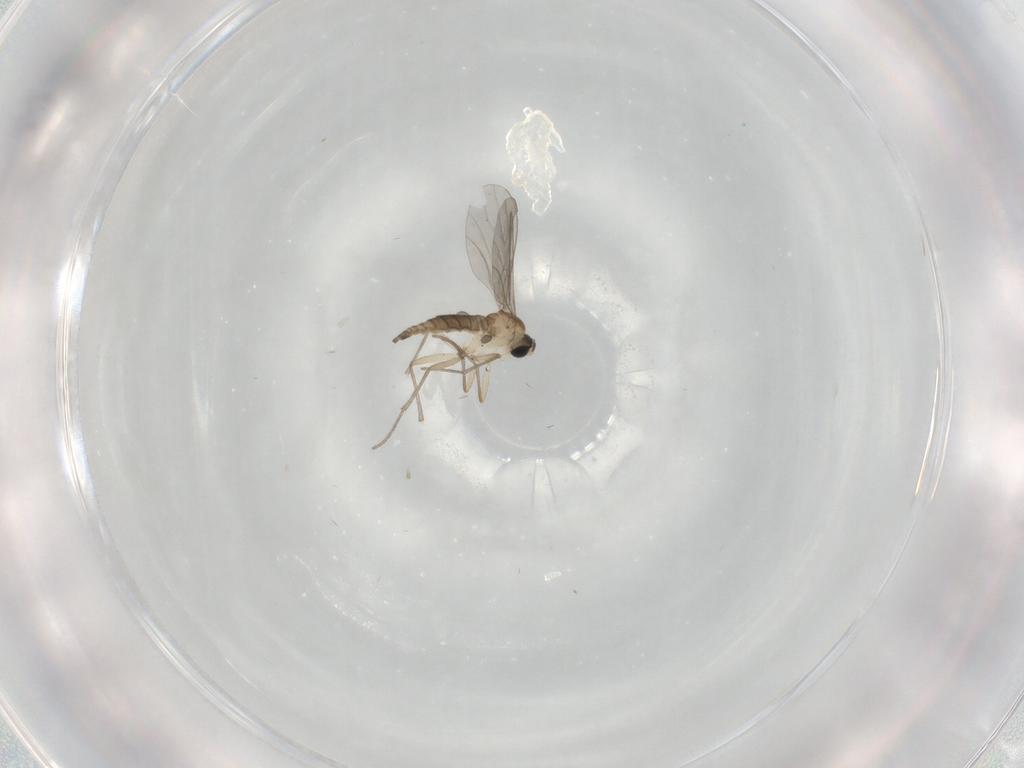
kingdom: Animalia
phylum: Arthropoda
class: Insecta
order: Diptera
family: Sciaridae
